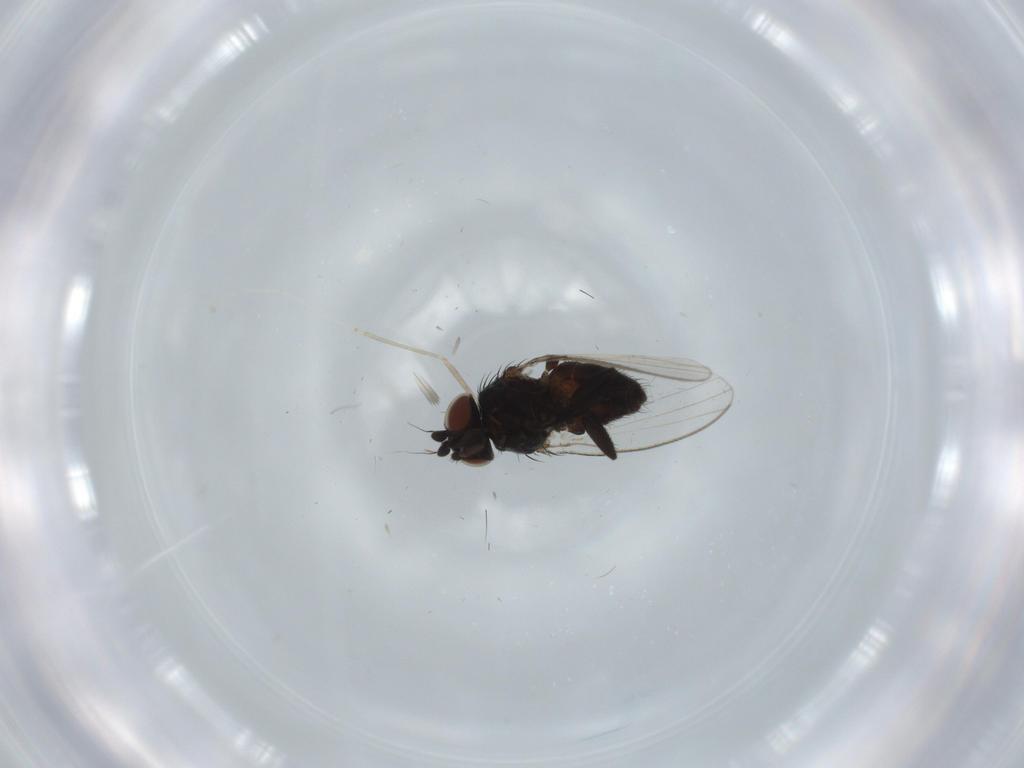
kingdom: Animalia
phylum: Arthropoda
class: Insecta
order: Diptera
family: Milichiidae
